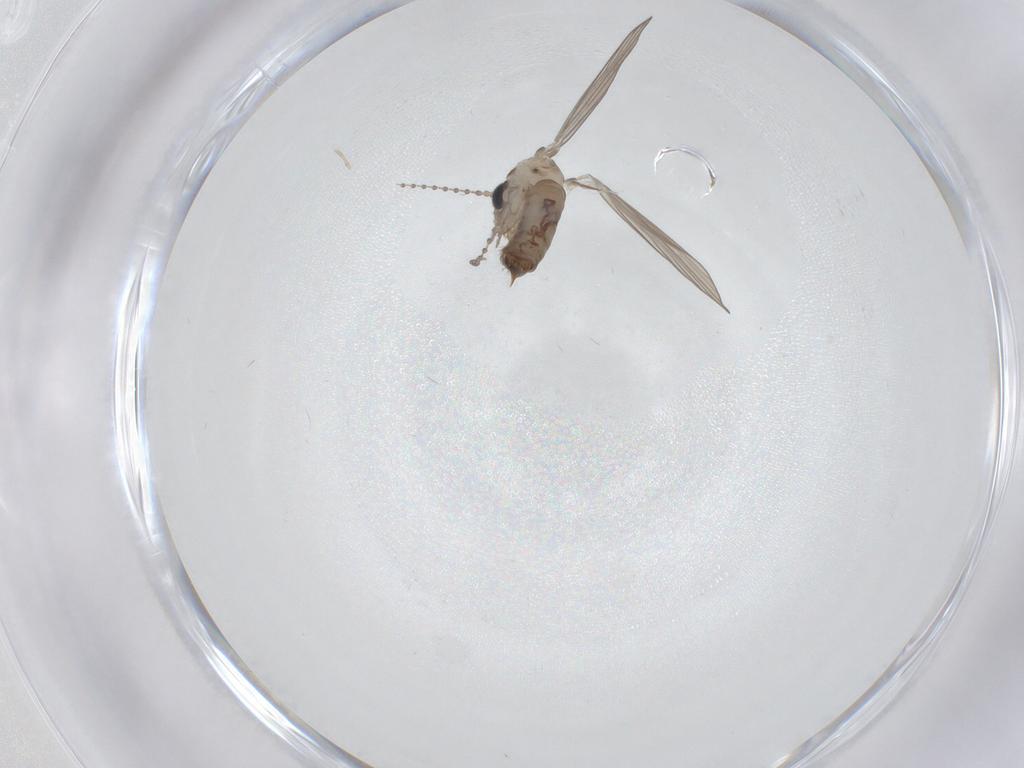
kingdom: Animalia
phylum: Arthropoda
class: Insecta
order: Diptera
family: Psychodidae
